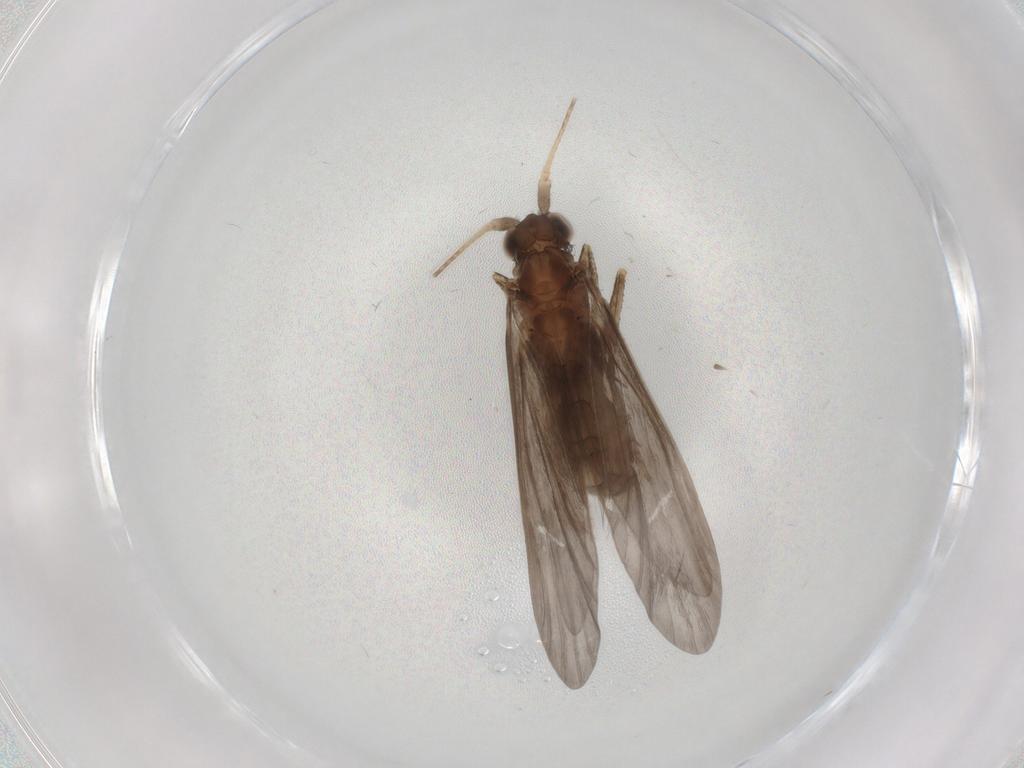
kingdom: Animalia
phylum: Arthropoda
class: Insecta
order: Trichoptera
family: Helicopsychidae
